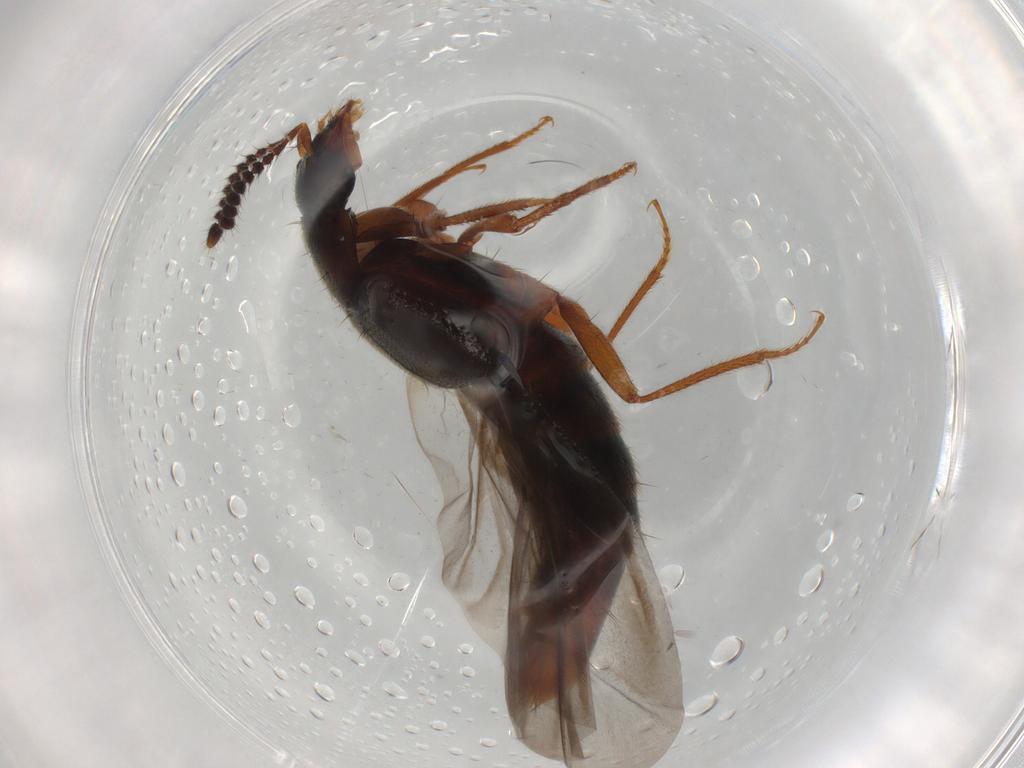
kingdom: Animalia
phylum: Arthropoda
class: Insecta
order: Coleoptera
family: Staphylinidae
